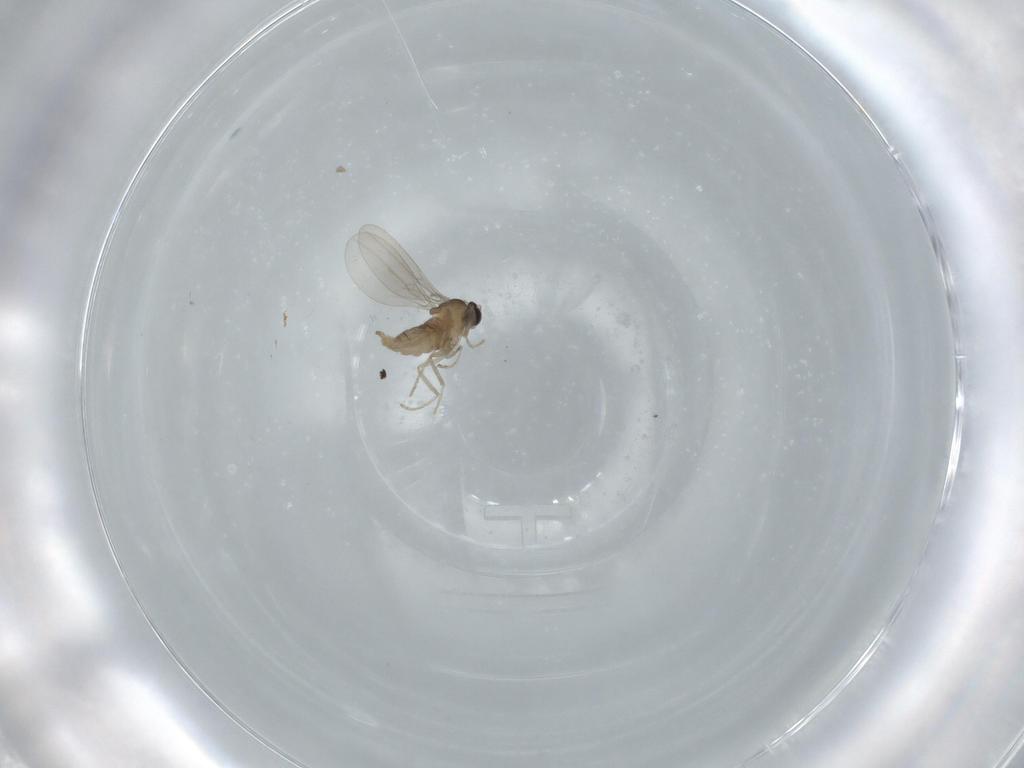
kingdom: Animalia
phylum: Arthropoda
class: Insecta
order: Diptera
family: Cecidomyiidae
